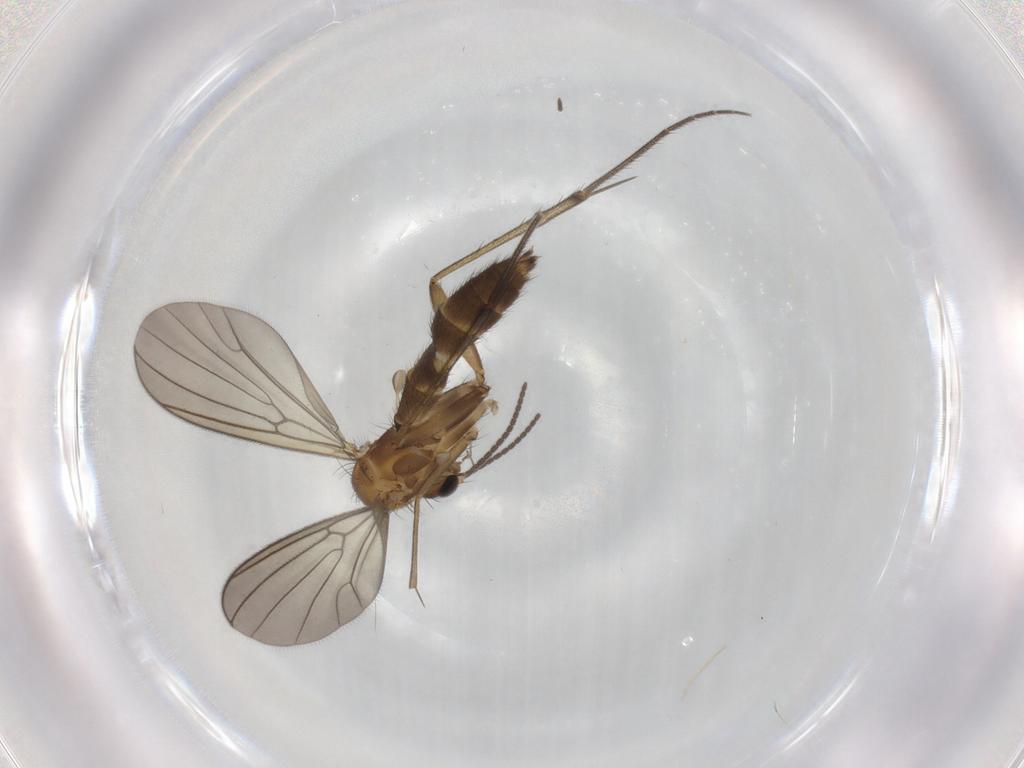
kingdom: Animalia
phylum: Arthropoda
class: Insecta
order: Diptera
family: Mycetophilidae
